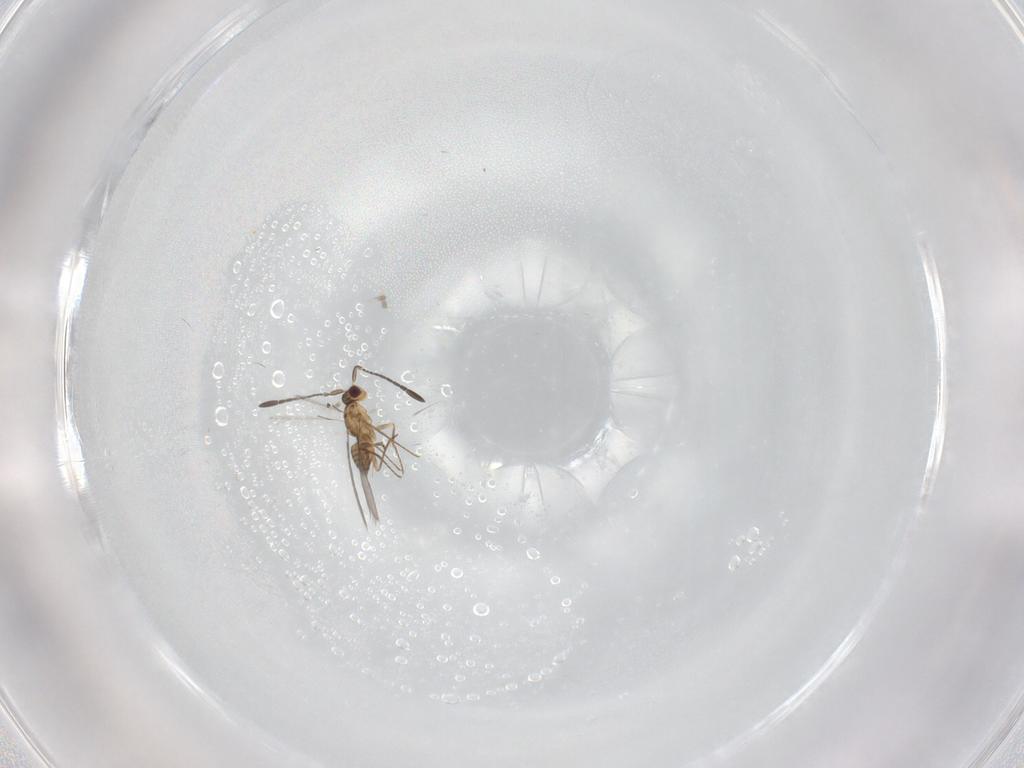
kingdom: Animalia
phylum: Arthropoda
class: Insecta
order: Hymenoptera
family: Mymaridae
